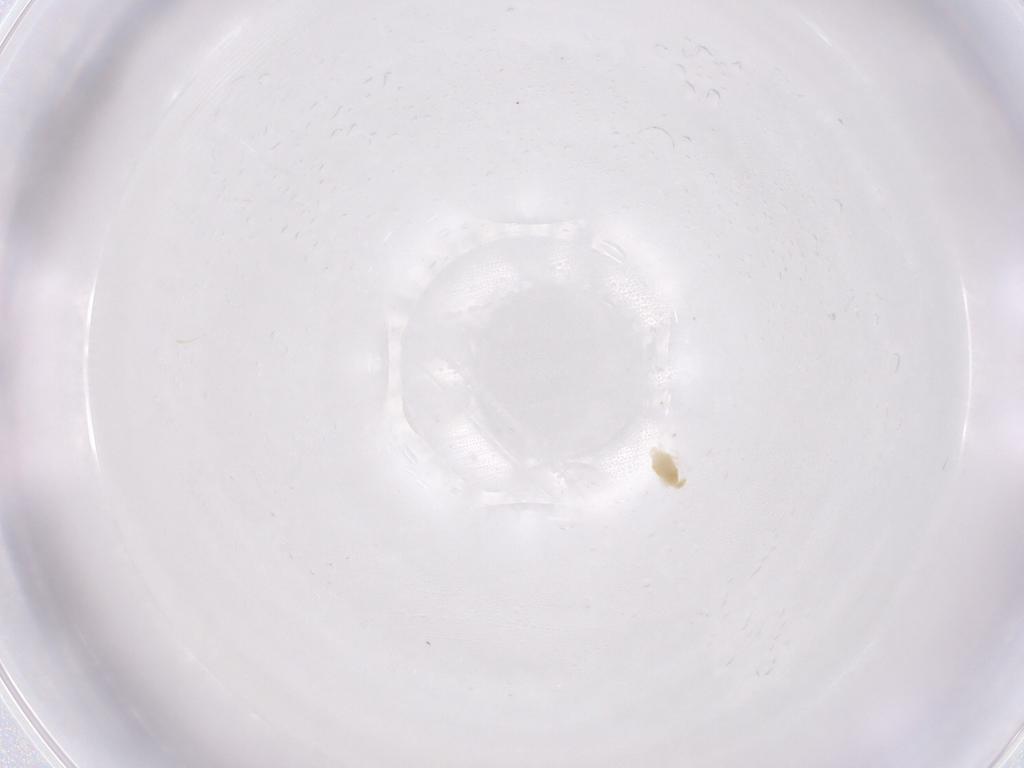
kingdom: Animalia
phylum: Arthropoda
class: Arachnida
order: Trombidiformes
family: Eupodidae
